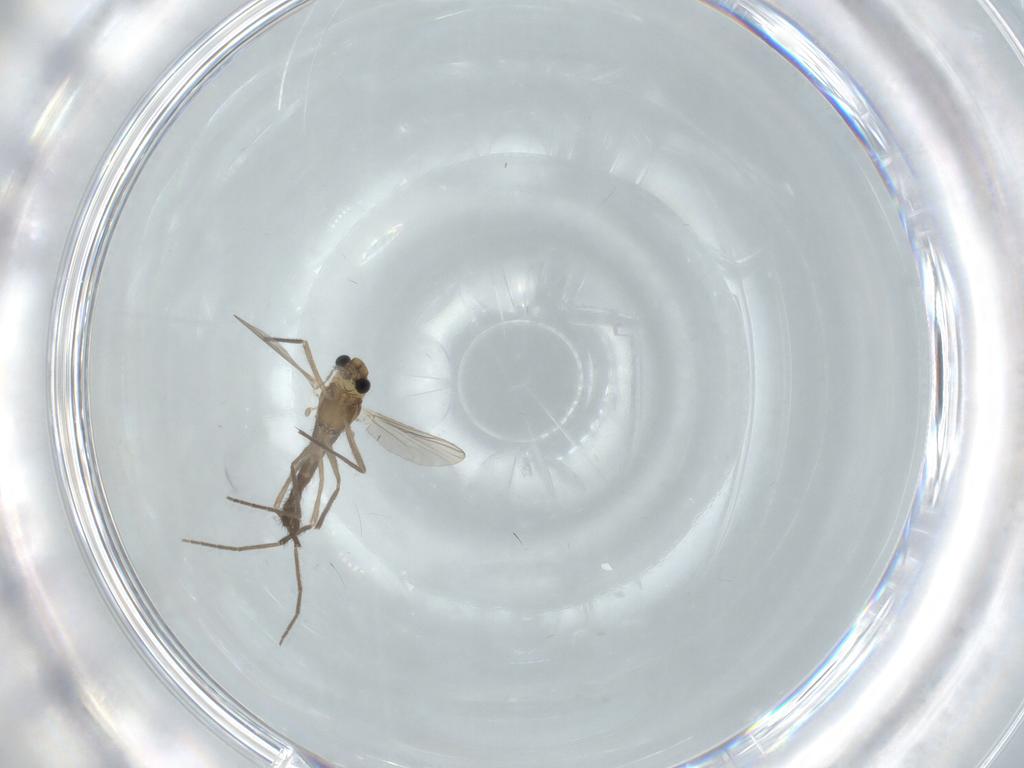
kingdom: Animalia
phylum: Arthropoda
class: Insecta
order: Diptera
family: Chironomidae
